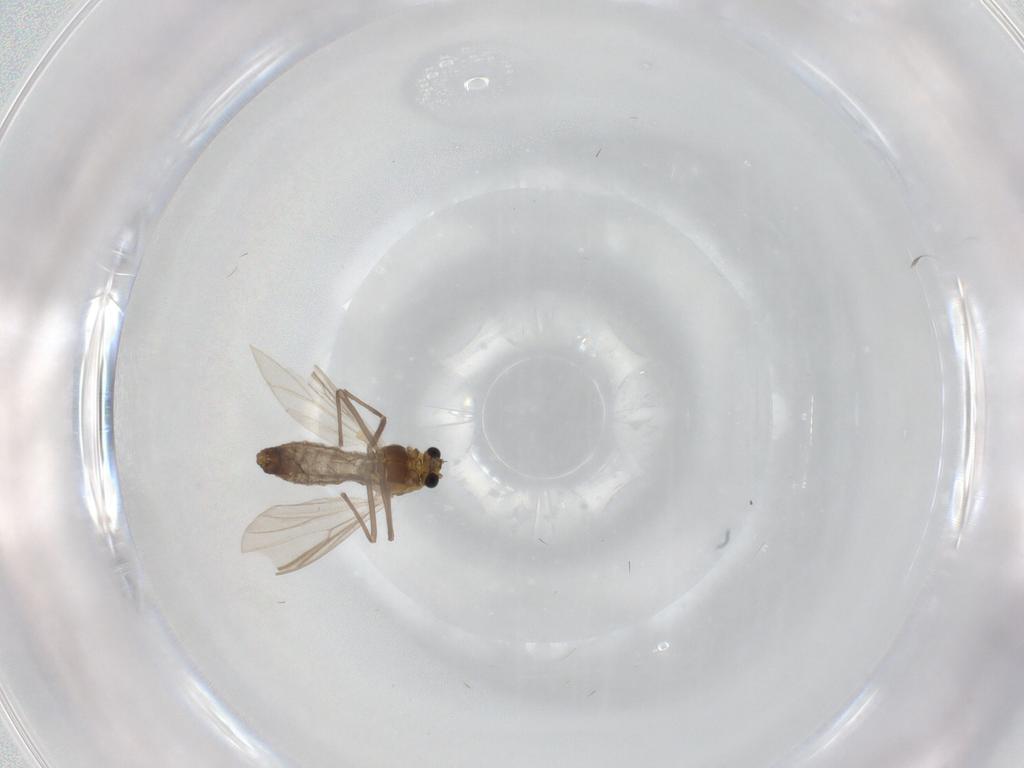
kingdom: Animalia
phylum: Arthropoda
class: Insecta
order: Diptera
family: Chironomidae
